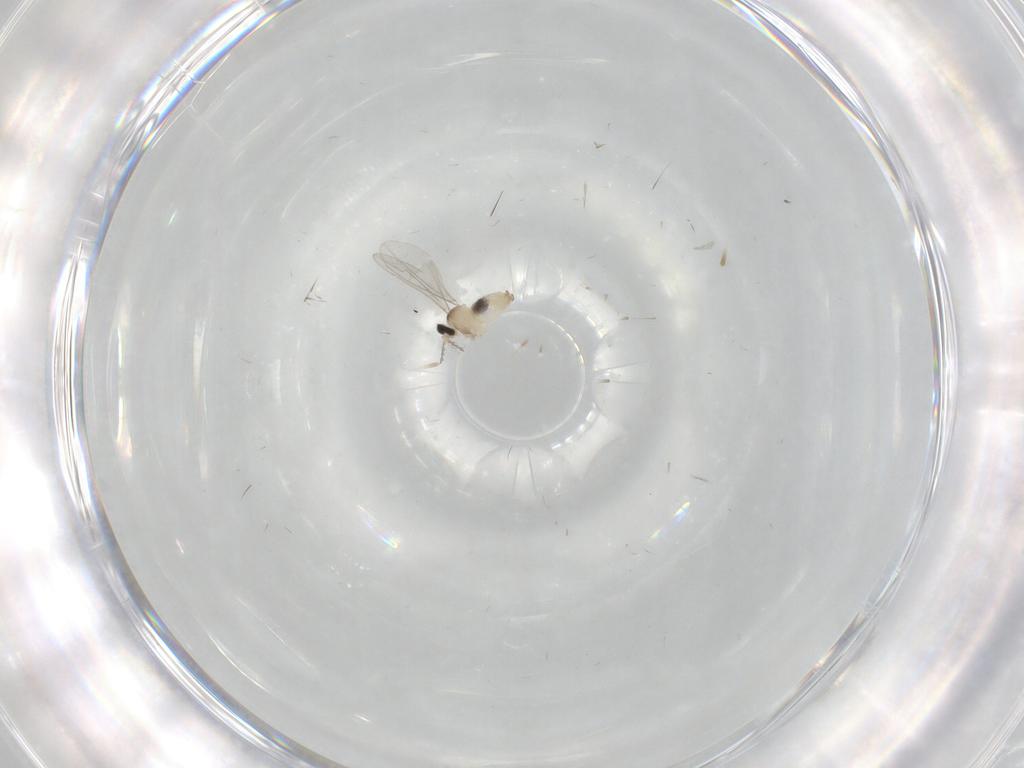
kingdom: Animalia
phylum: Arthropoda
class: Insecta
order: Diptera
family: Cecidomyiidae
